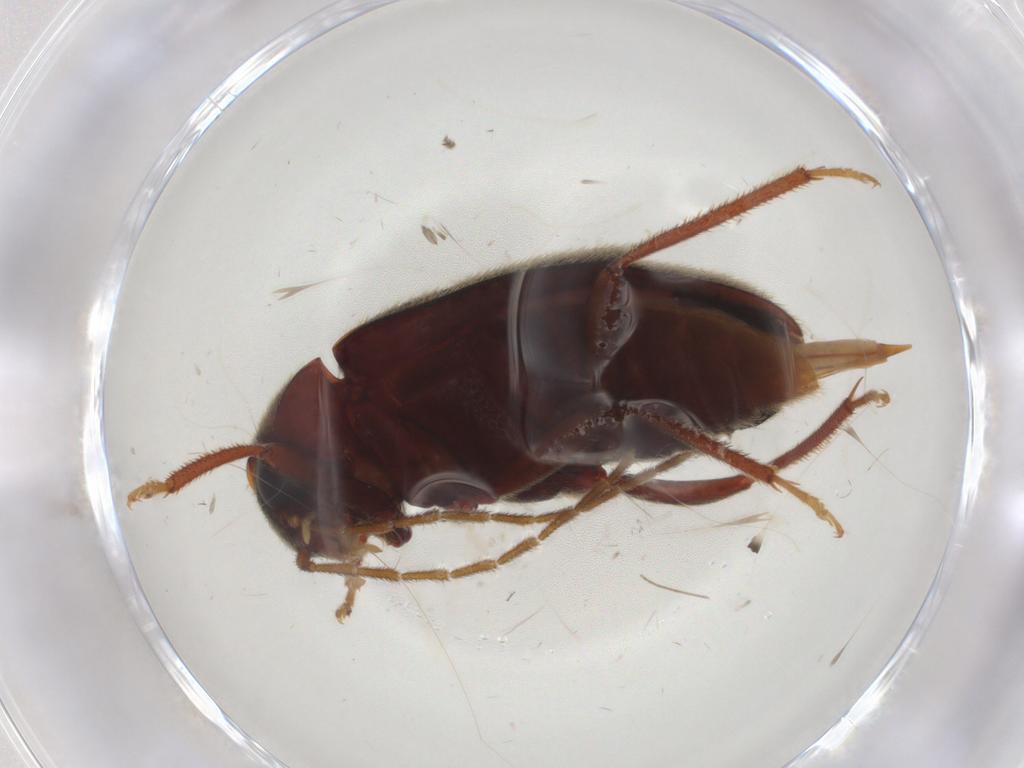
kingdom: Animalia
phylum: Arthropoda
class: Insecta
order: Coleoptera
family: Ptilodactylidae
